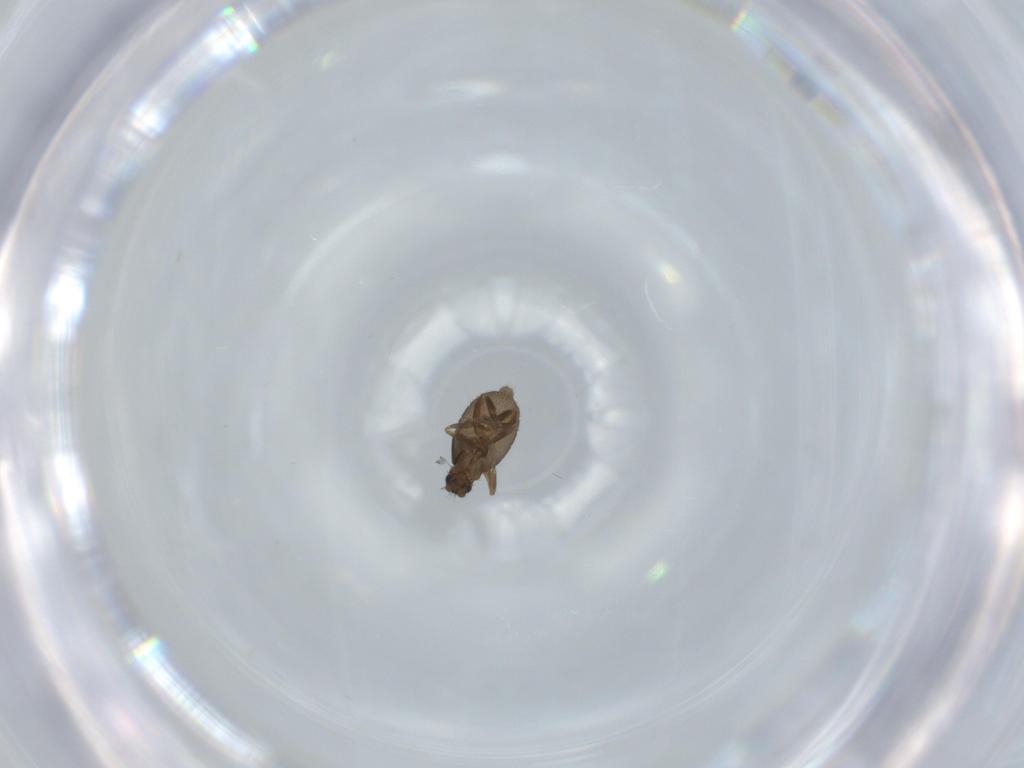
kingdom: Animalia
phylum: Arthropoda
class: Insecta
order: Diptera
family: Phoridae
